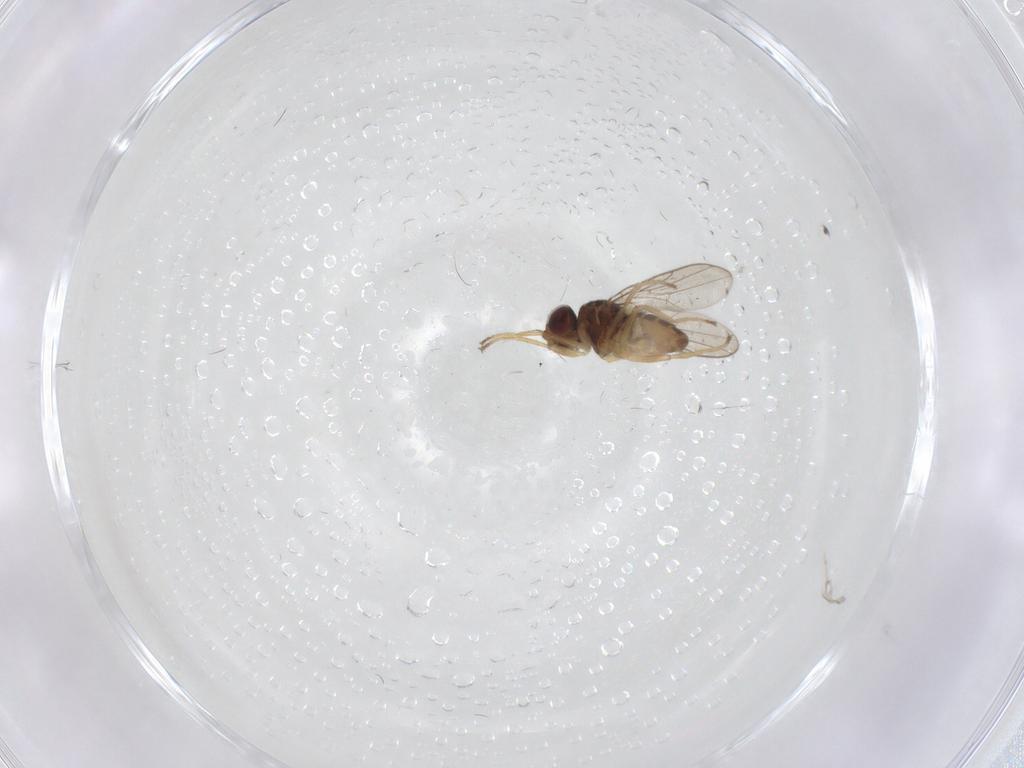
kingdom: Animalia
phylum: Arthropoda
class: Insecta
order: Diptera
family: Chloropidae
